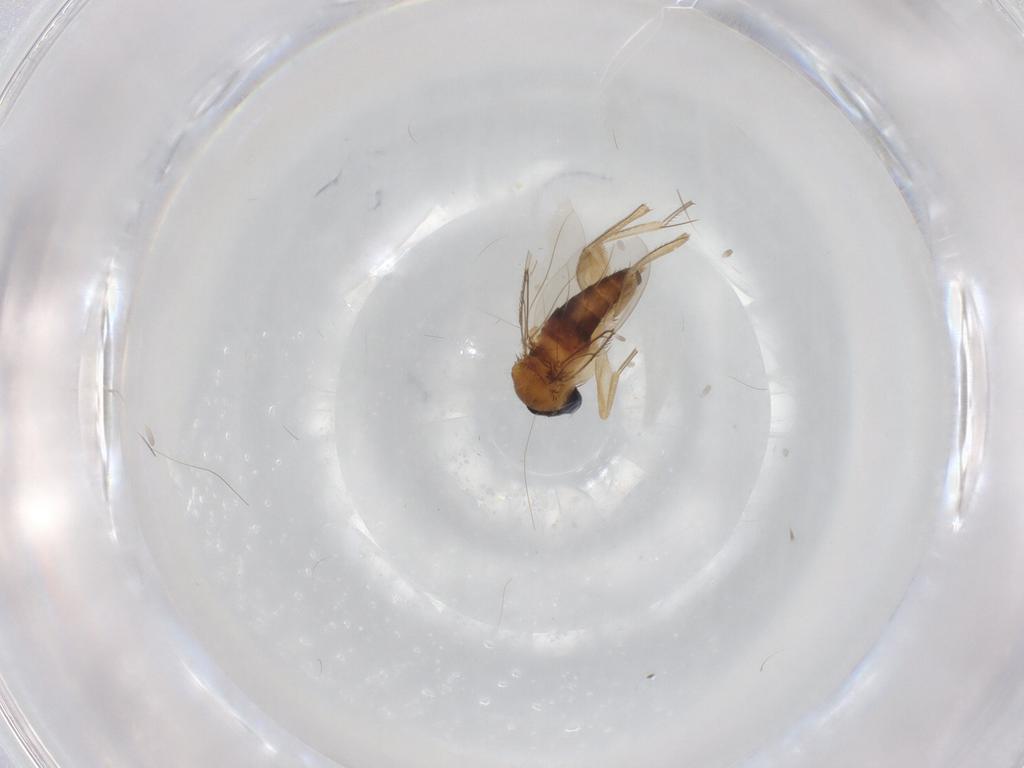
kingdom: Animalia
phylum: Arthropoda
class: Insecta
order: Diptera
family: Phoridae
